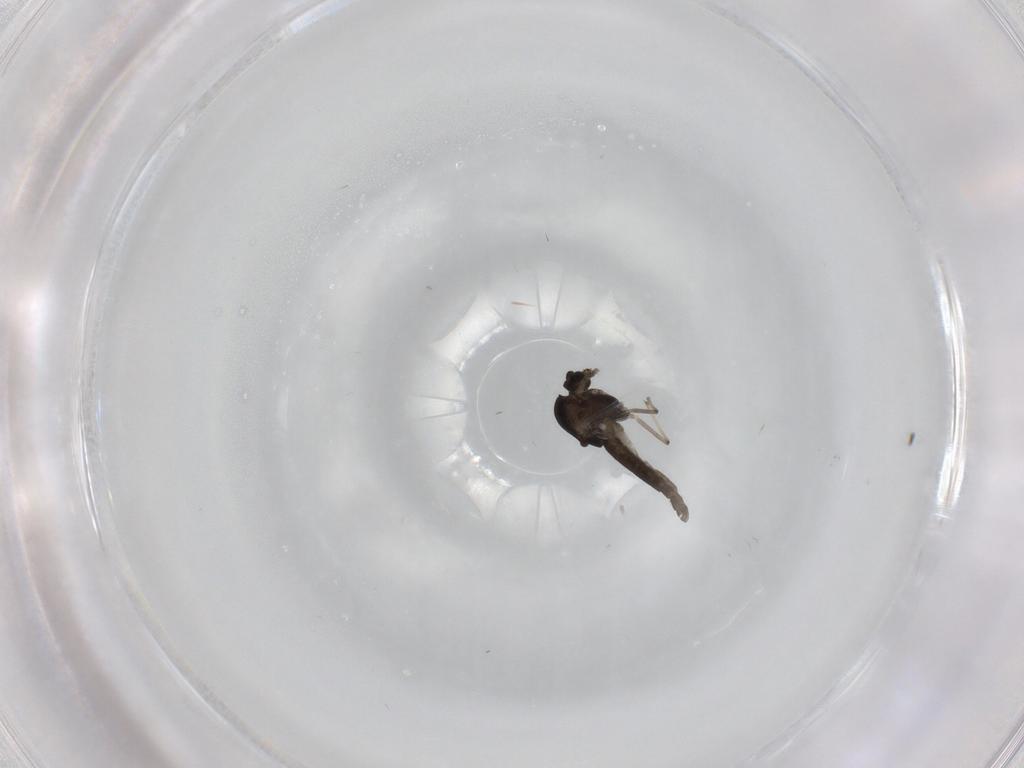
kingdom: Animalia
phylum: Arthropoda
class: Insecta
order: Diptera
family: Chironomidae
